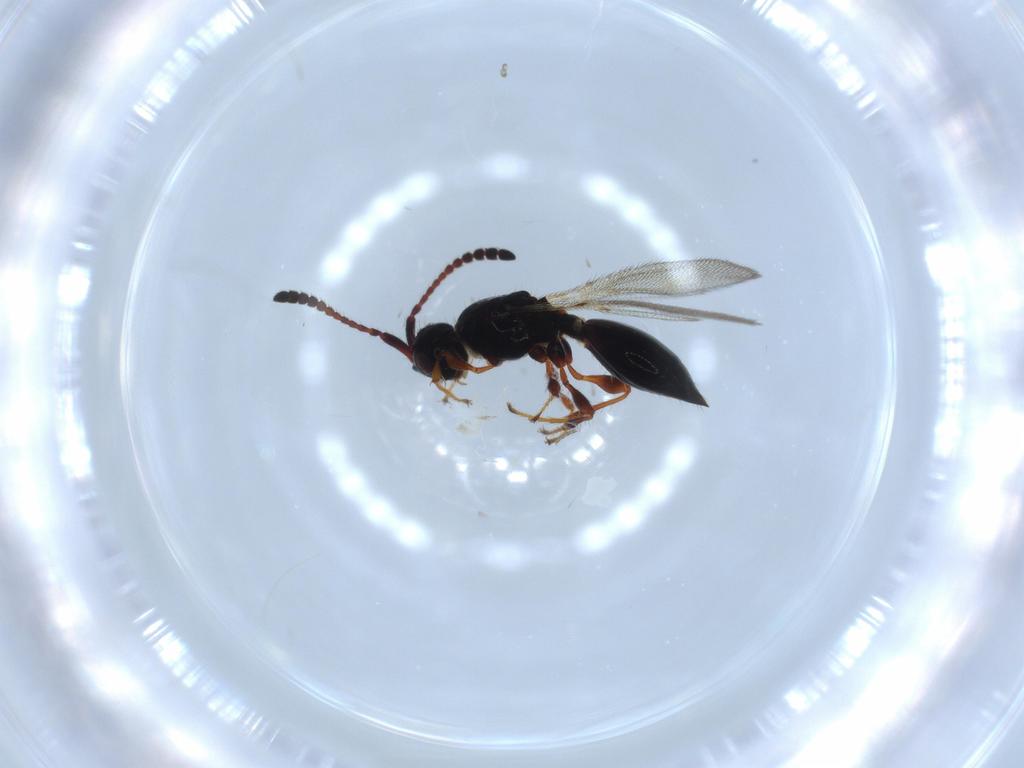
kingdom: Animalia
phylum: Arthropoda
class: Insecta
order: Hymenoptera
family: Diapriidae
